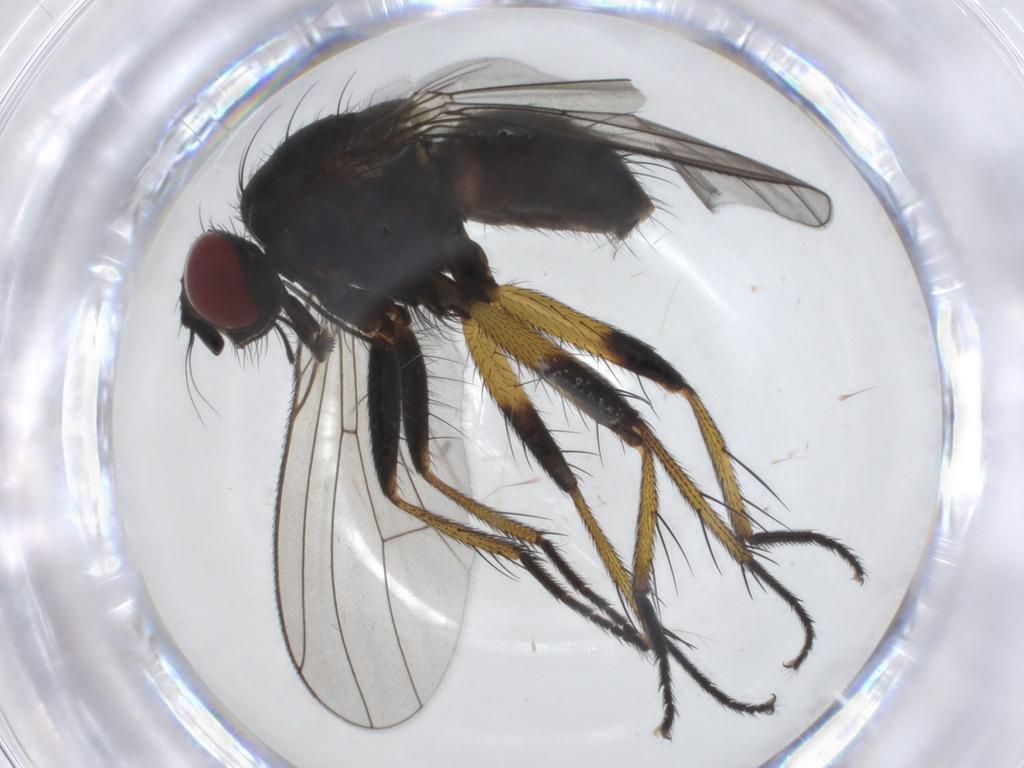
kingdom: Animalia
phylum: Arthropoda
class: Insecta
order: Diptera
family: Muscidae
